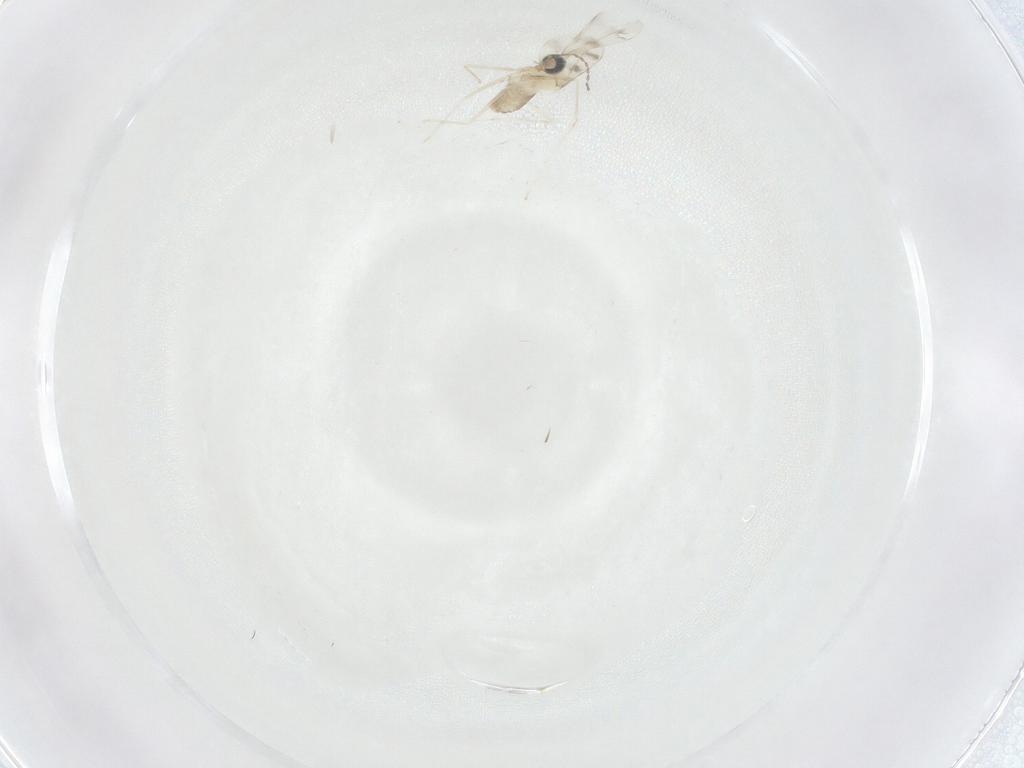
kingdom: Animalia
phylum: Arthropoda
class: Insecta
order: Diptera
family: Cecidomyiidae
